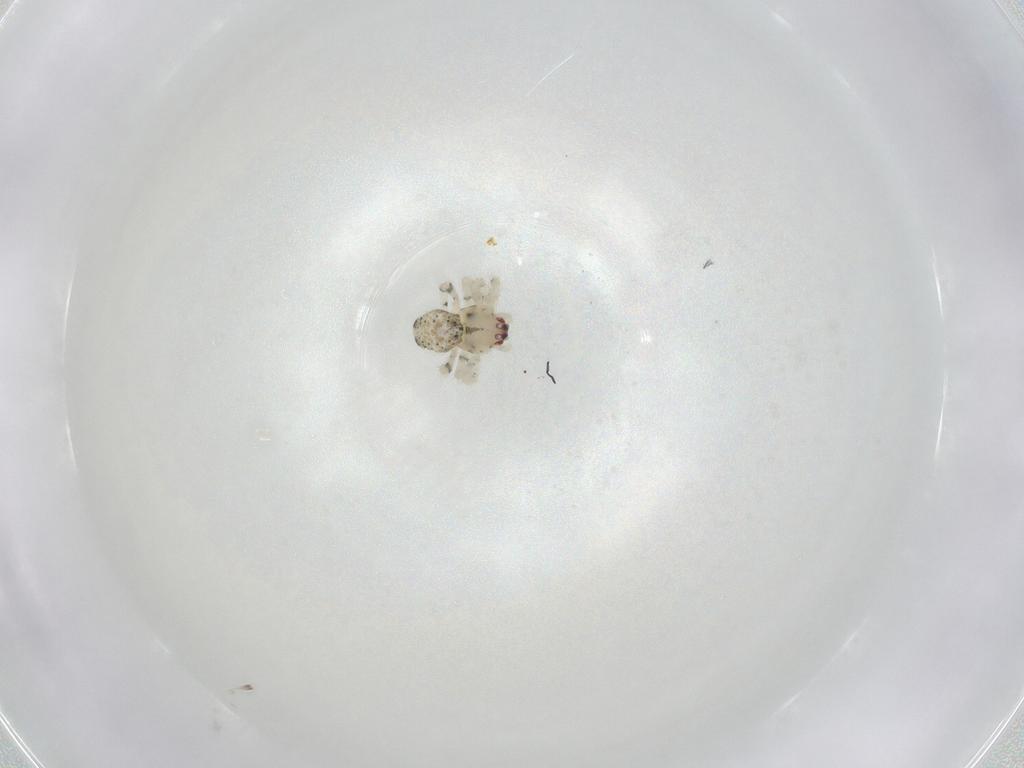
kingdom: Animalia
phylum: Arthropoda
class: Arachnida
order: Araneae
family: Theridiidae
